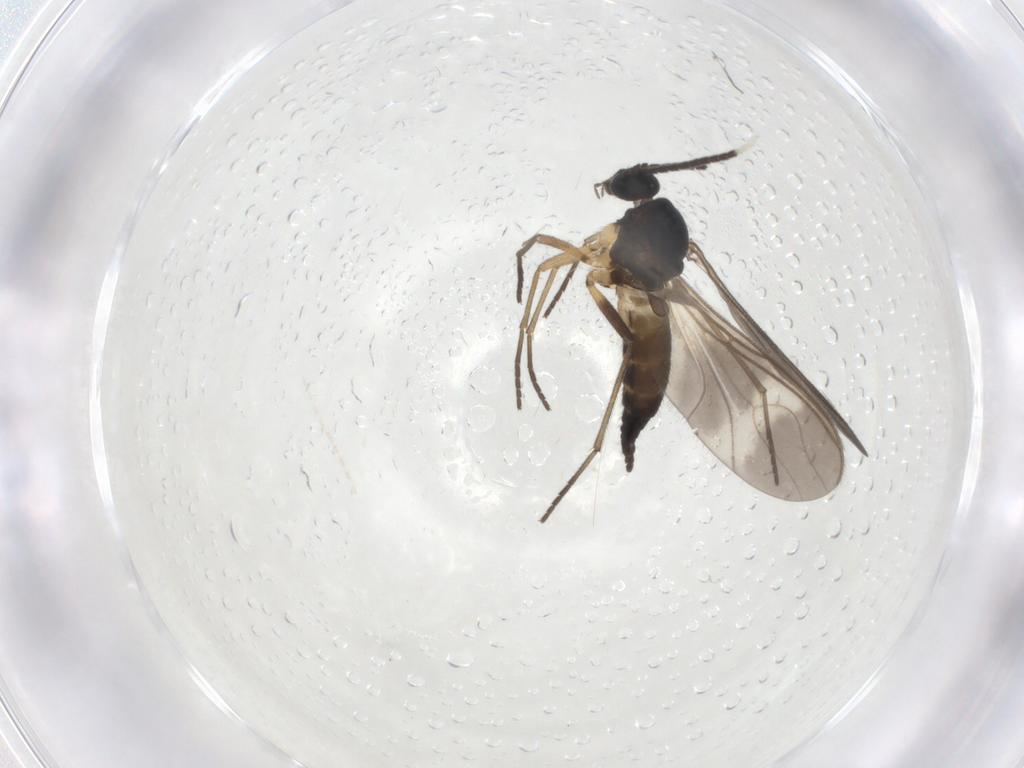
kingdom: Animalia
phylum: Arthropoda
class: Insecta
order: Diptera
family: Sciaridae
